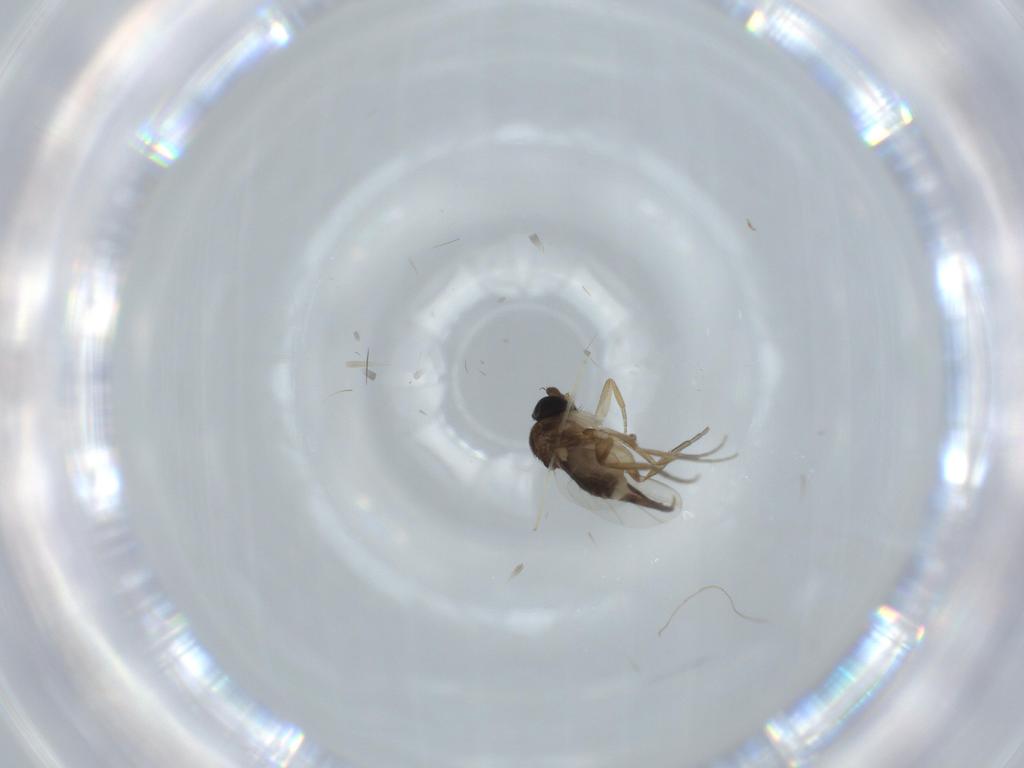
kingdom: Animalia
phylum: Arthropoda
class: Insecta
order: Diptera
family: Phoridae
